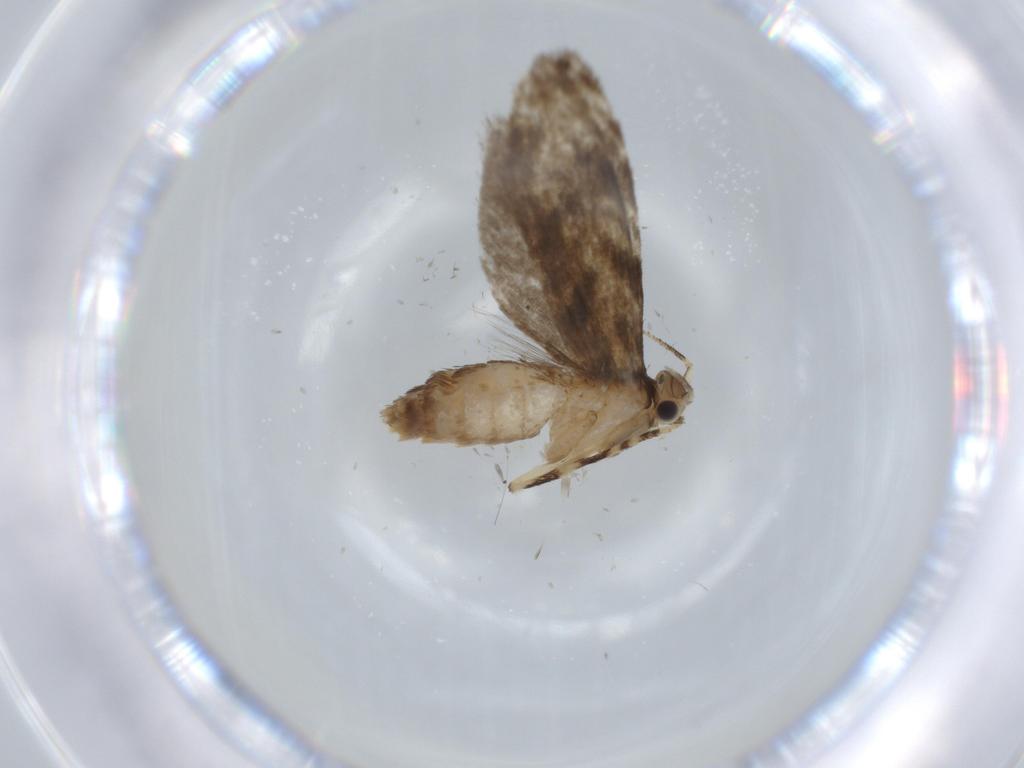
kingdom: Animalia
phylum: Arthropoda
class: Insecta
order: Lepidoptera
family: Tineidae
